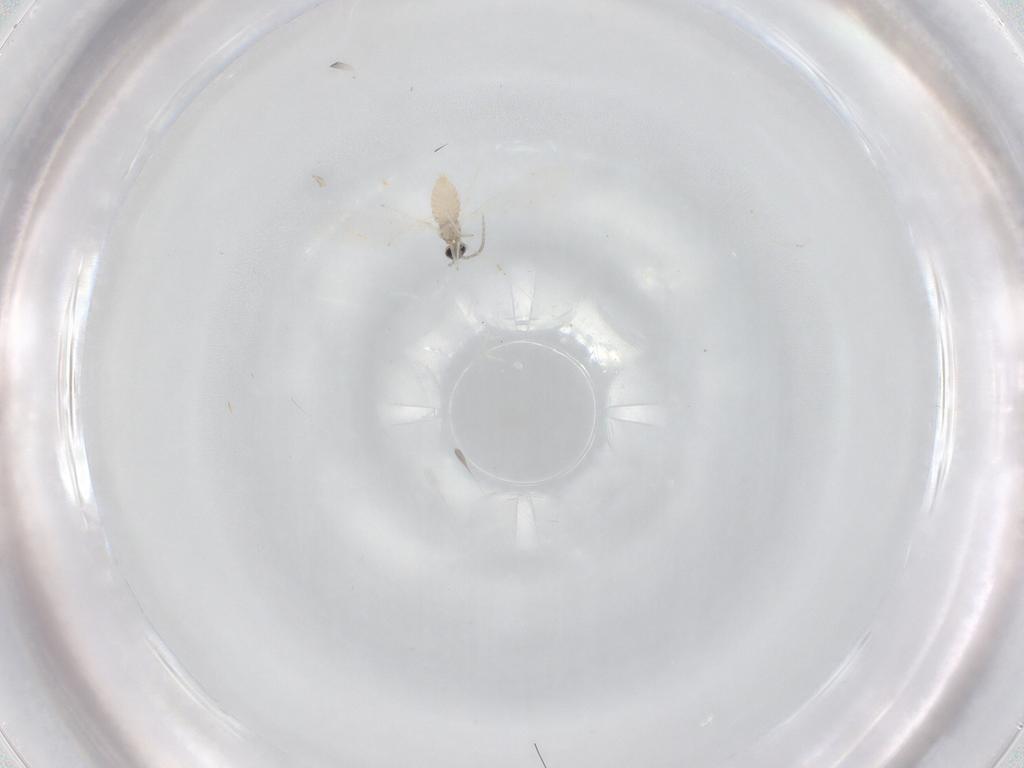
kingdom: Animalia
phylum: Arthropoda
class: Insecta
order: Diptera
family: Cecidomyiidae
